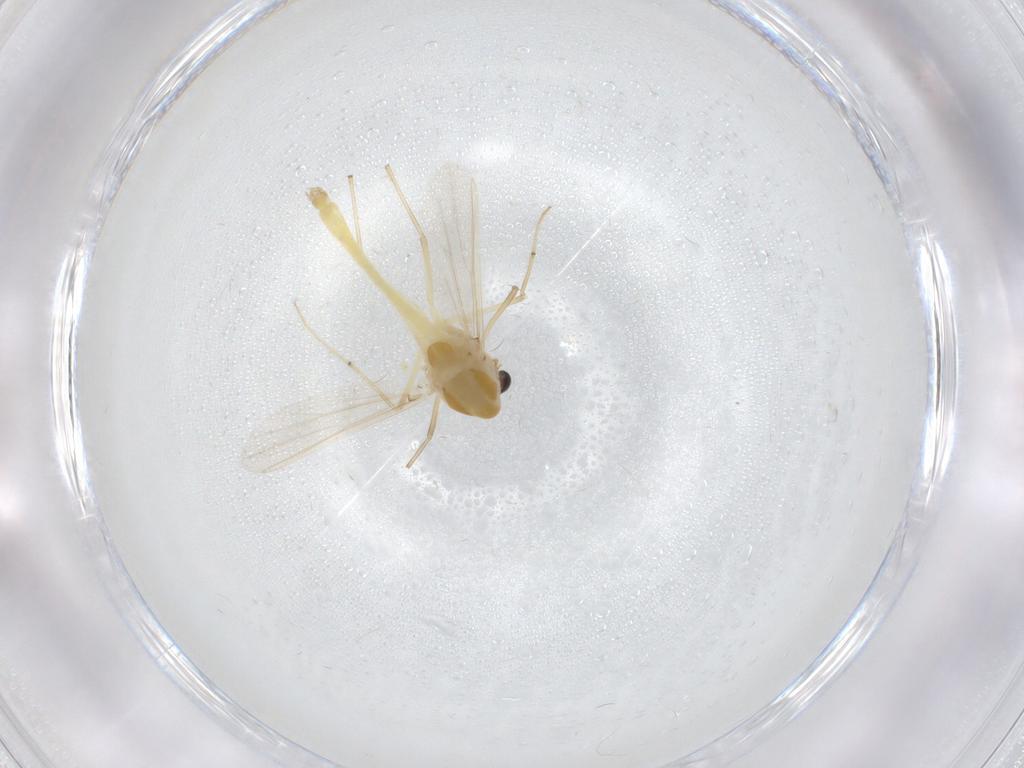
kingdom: Animalia
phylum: Arthropoda
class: Insecta
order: Diptera
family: Chironomidae
